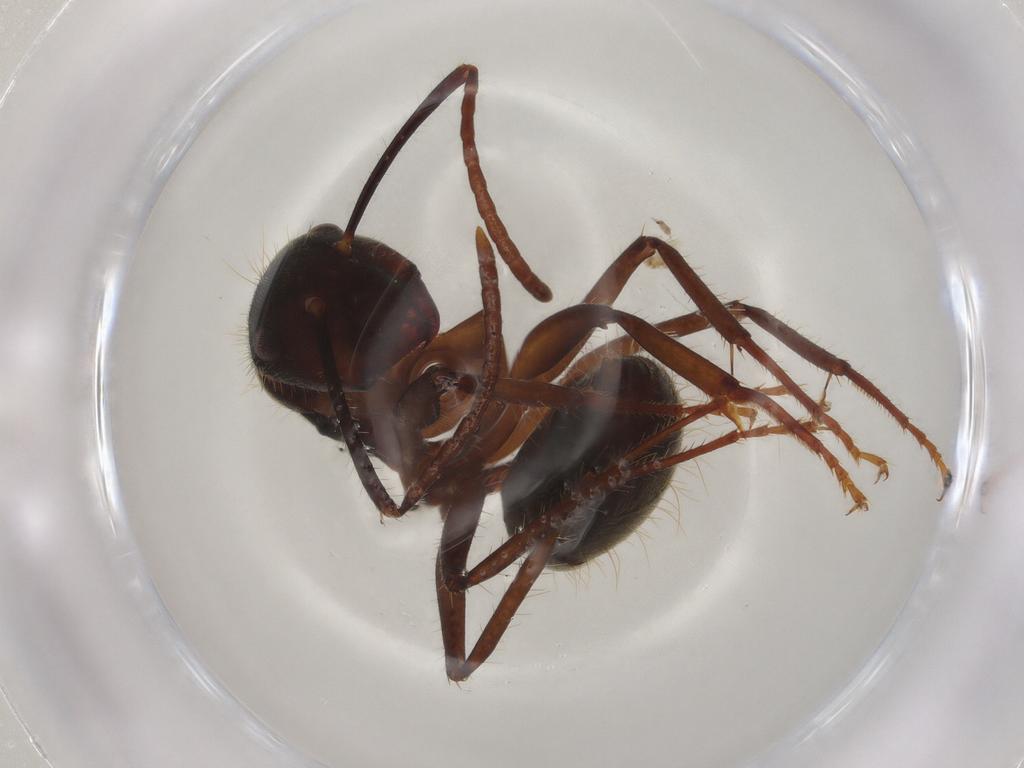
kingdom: Animalia
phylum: Arthropoda
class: Insecta
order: Hymenoptera
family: Formicidae
